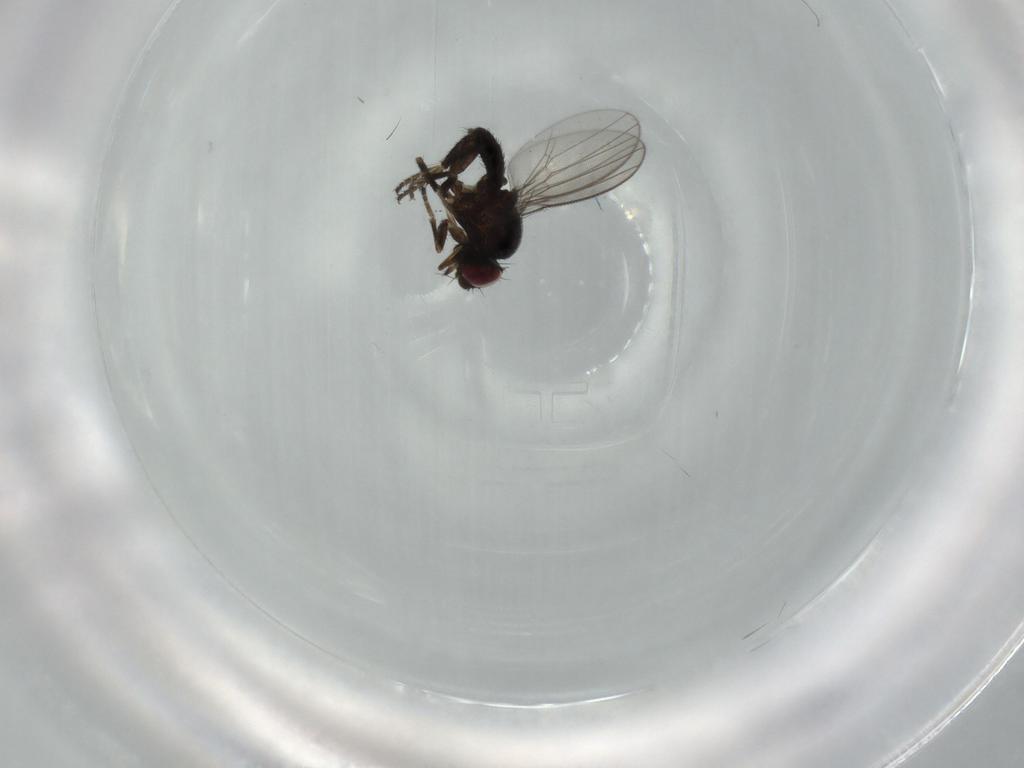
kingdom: Animalia
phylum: Arthropoda
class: Insecta
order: Diptera
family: Milichiidae
